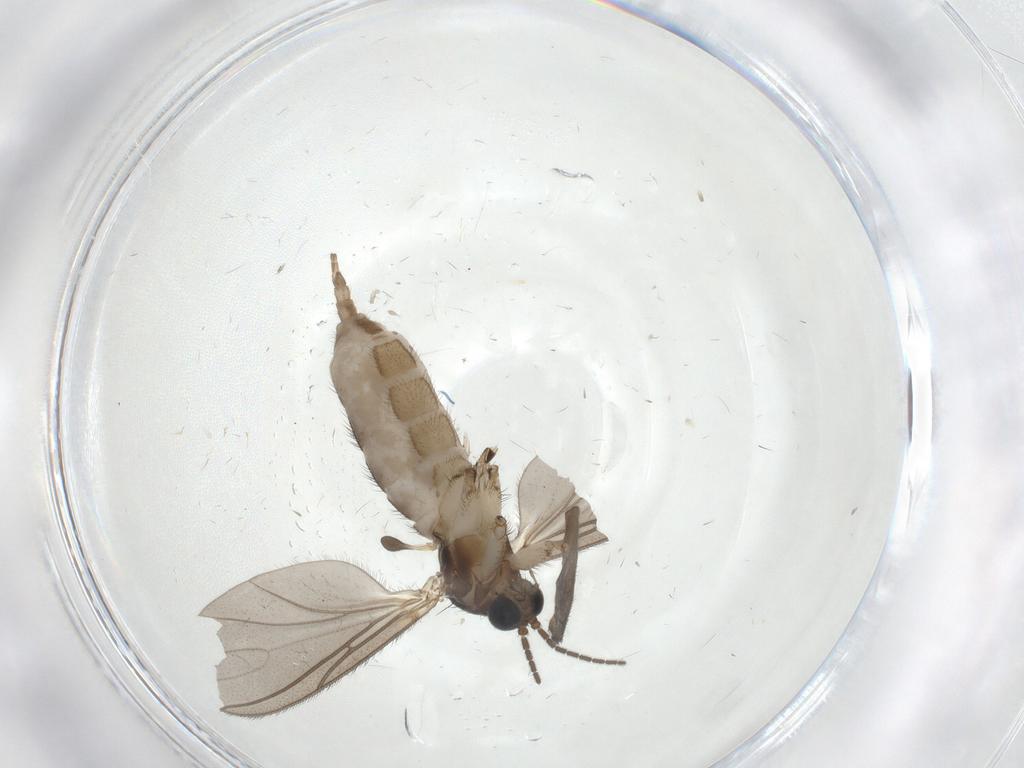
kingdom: Animalia
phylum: Arthropoda
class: Insecta
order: Diptera
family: Sciaridae
